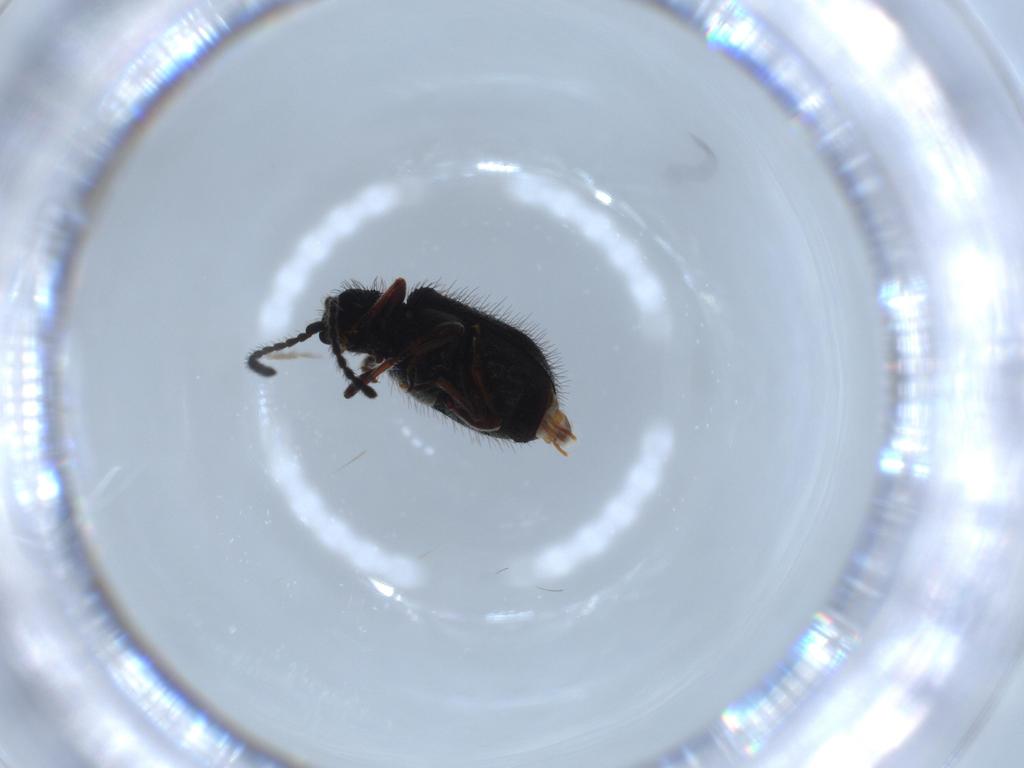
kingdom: Animalia
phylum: Arthropoda
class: Insecta
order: Coleoptera
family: Ptinidae
